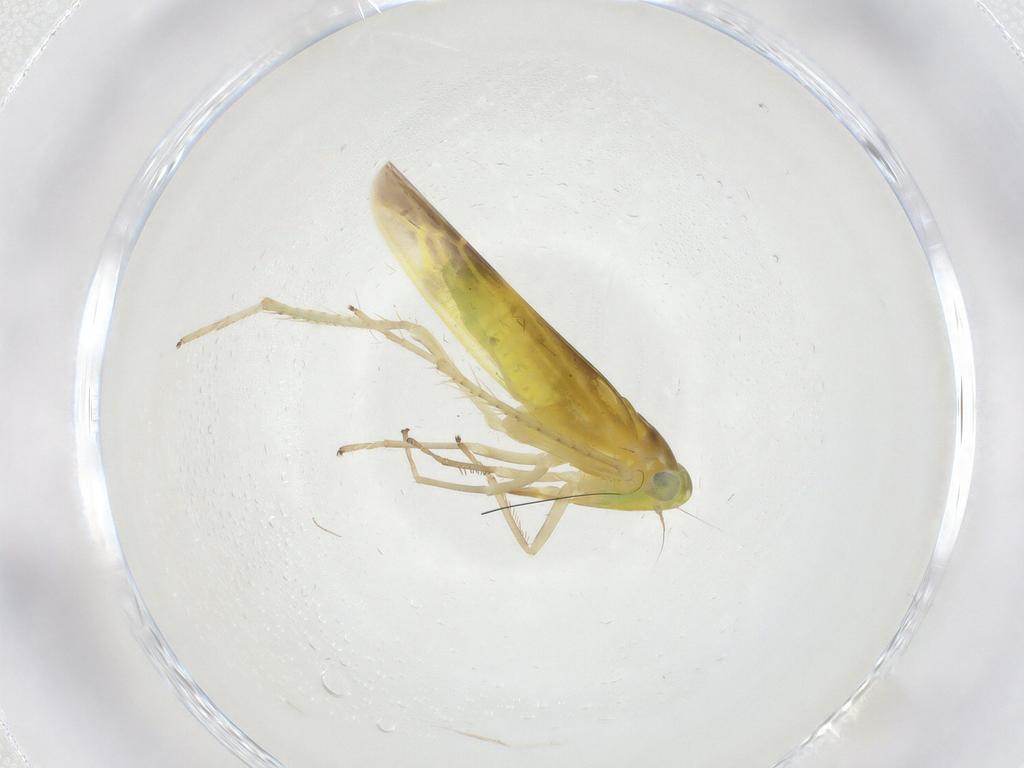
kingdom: Animalia
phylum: Arthropoda
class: Insecta
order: Hemiptera
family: Cicadellidae
